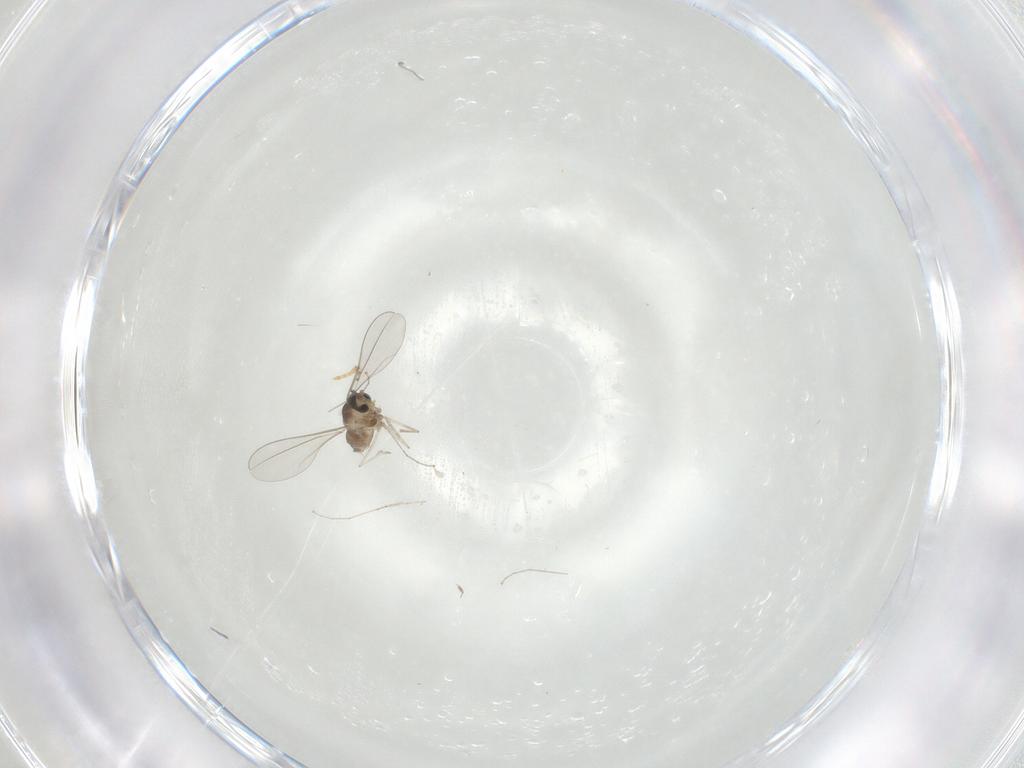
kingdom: Animalia
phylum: Arthropoda
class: Insecta
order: Diptera
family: Cecidomyiidae
